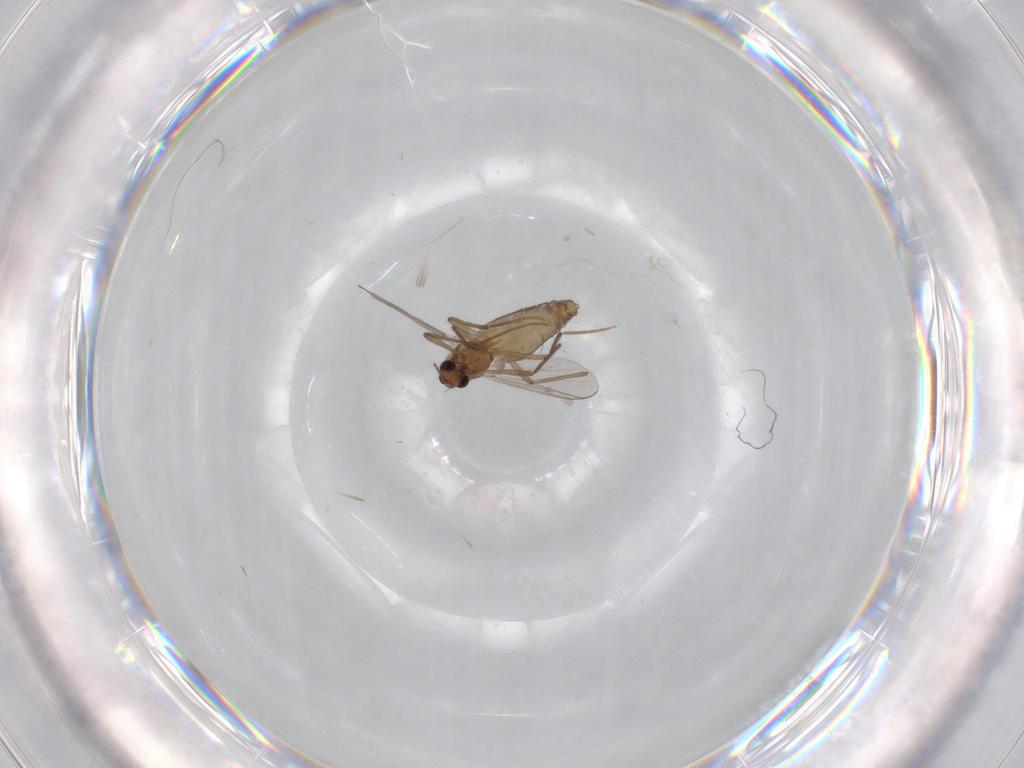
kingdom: Animalia
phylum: Arthropoda
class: Insecta
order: Diptera
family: Chironomidae
